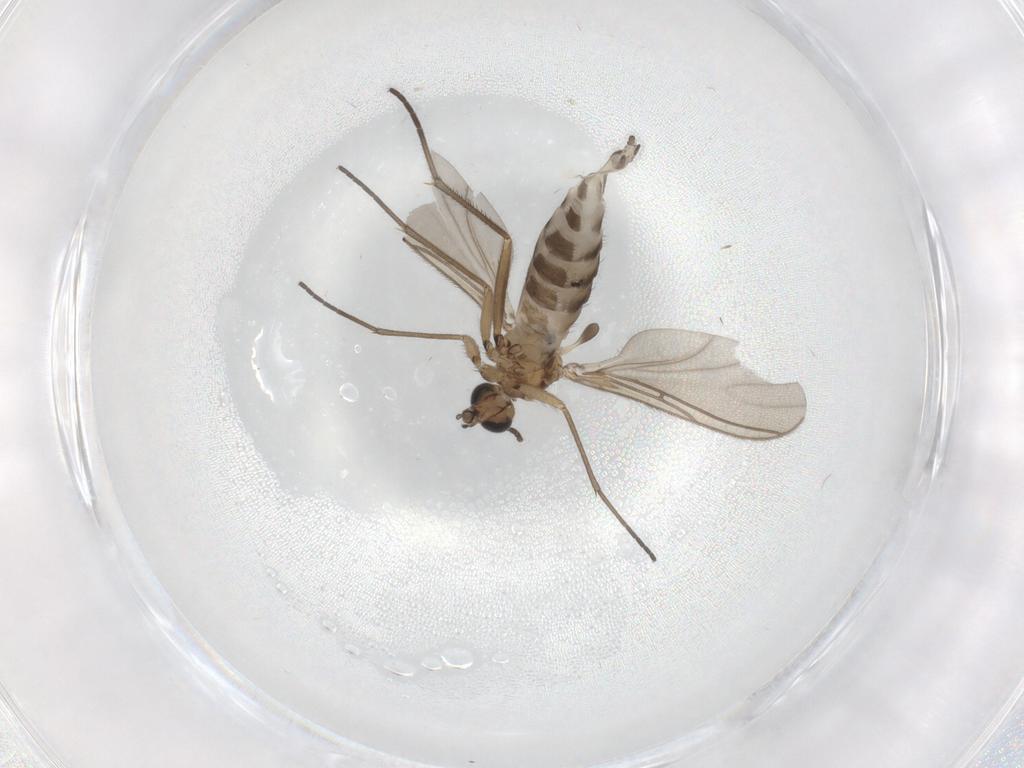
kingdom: Animalia
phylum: Arthropoda
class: Insecta
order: Diptera
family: Sciaridae
